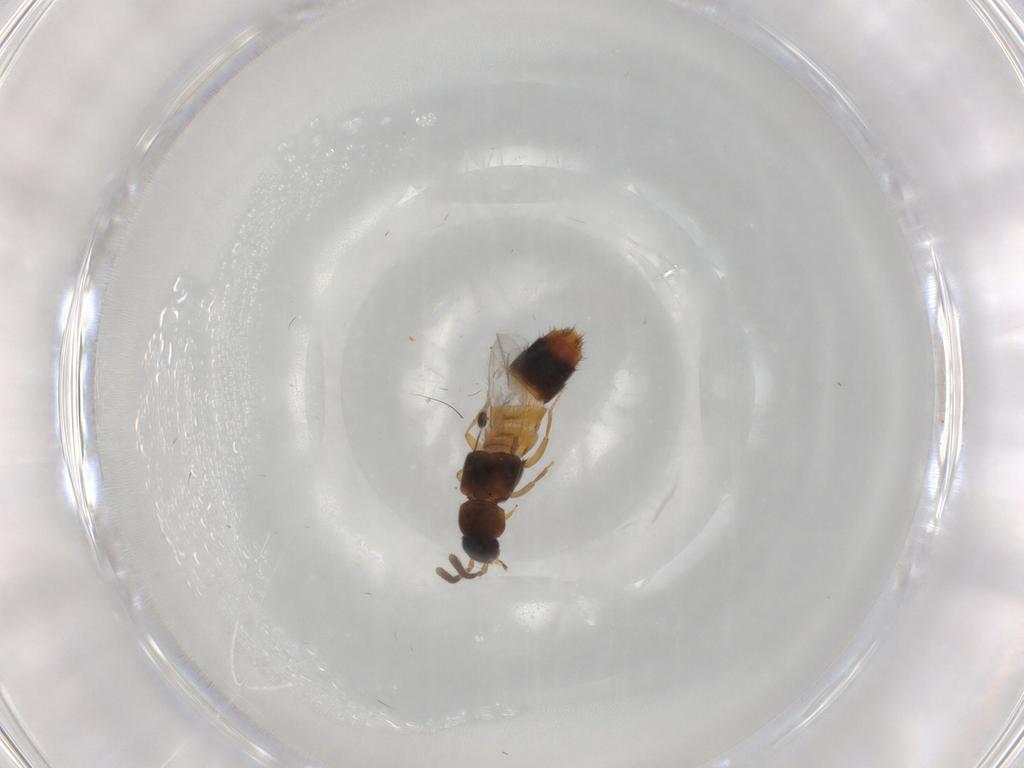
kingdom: Animalia
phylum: Arthropoda
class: Insecta
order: Coleoptera
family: Staphylinidae
